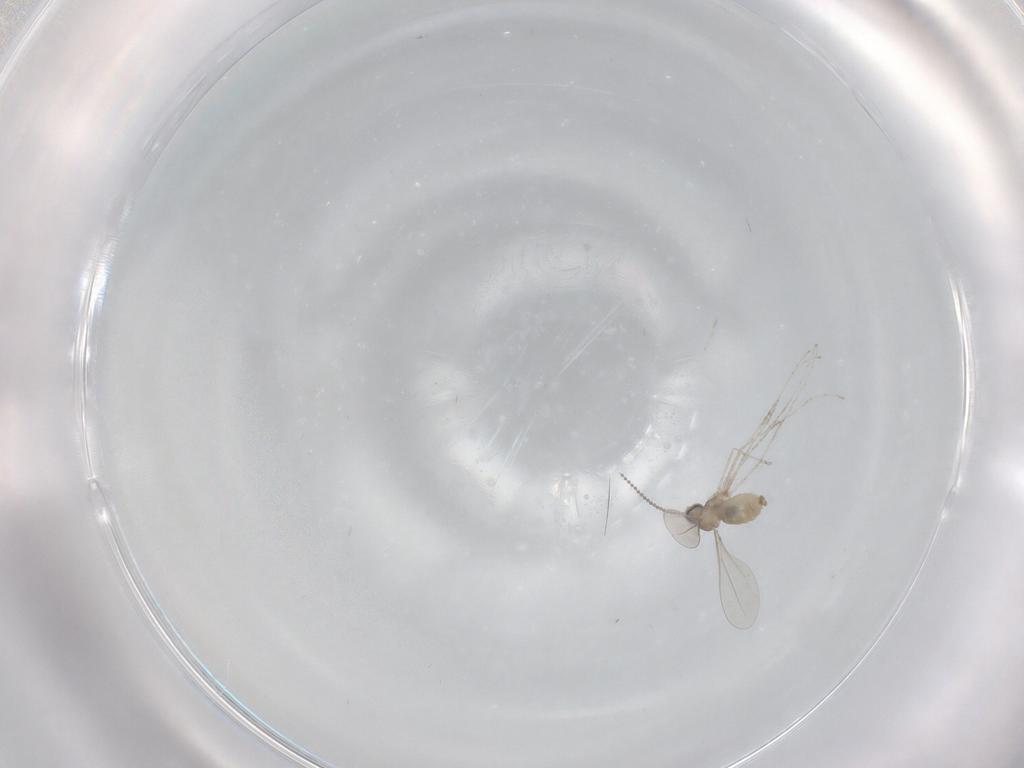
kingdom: Animalia
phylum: Arthropoda
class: Insecta
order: Diptera
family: Phoridae
